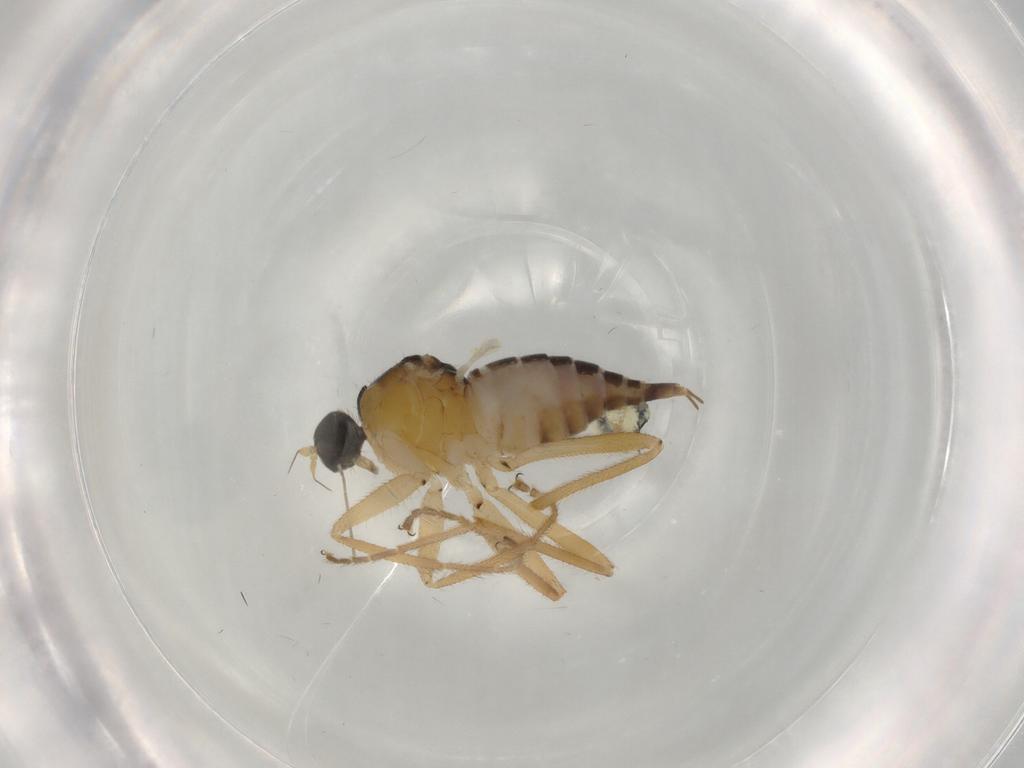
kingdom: Animalia
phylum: Arthropoda
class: Insecta
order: Diptera
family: Hybotidae
